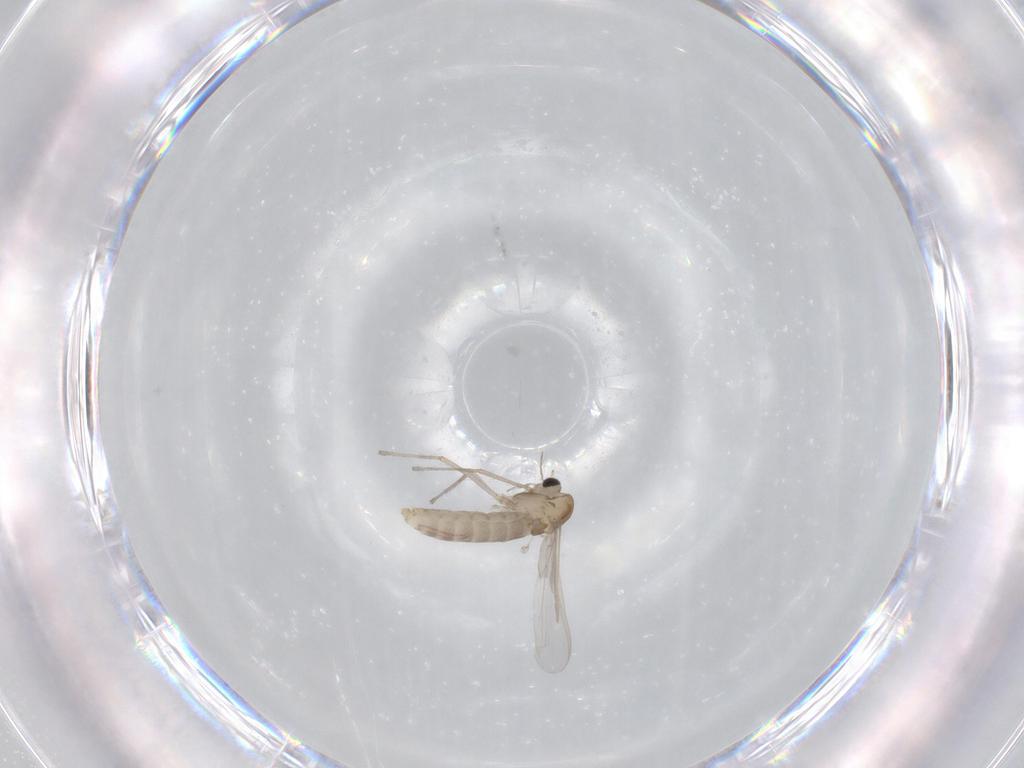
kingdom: Animalia
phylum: Arthropoda
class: Insecta
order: Diptera
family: Chironomidae
